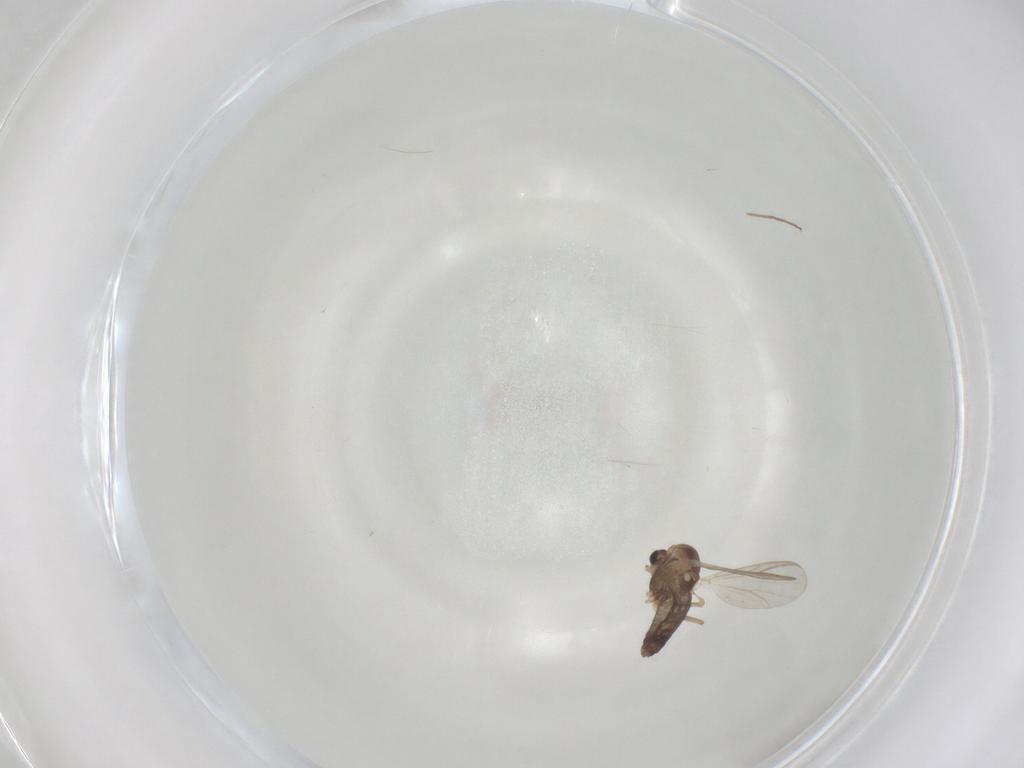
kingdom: Animalia
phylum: Arthropoda
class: Insecta
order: Diptera
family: Chironomidae
